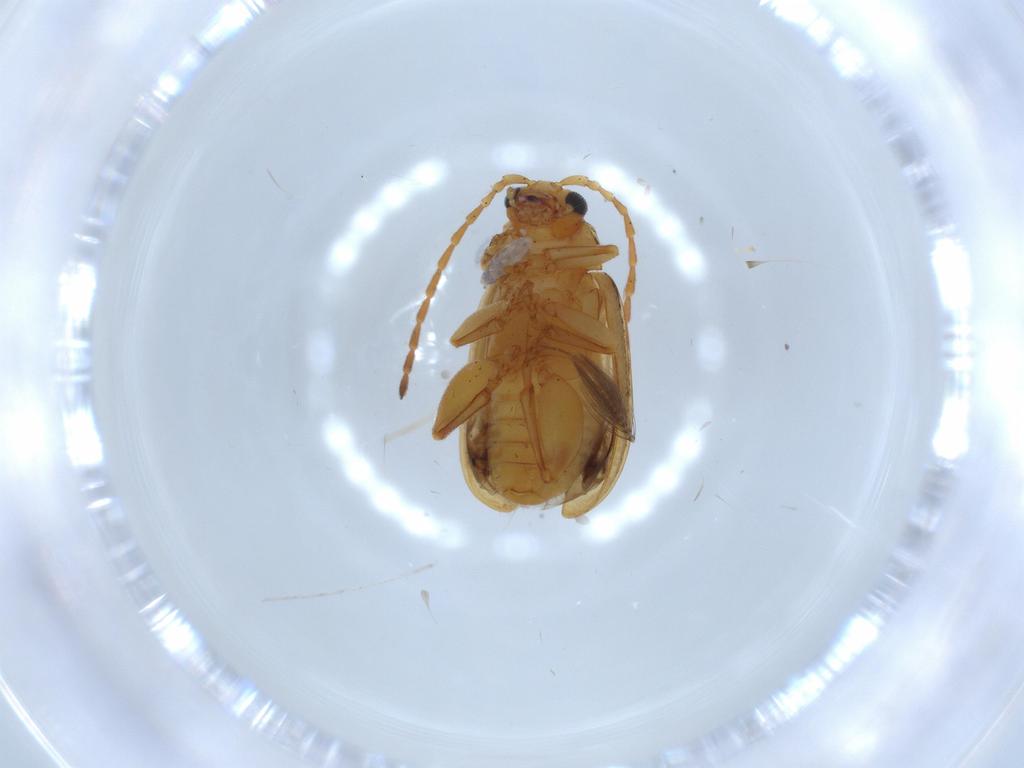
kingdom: Animalia
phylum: Arthropoda
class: Insecta
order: Coleoptera
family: Chrysomelidae
